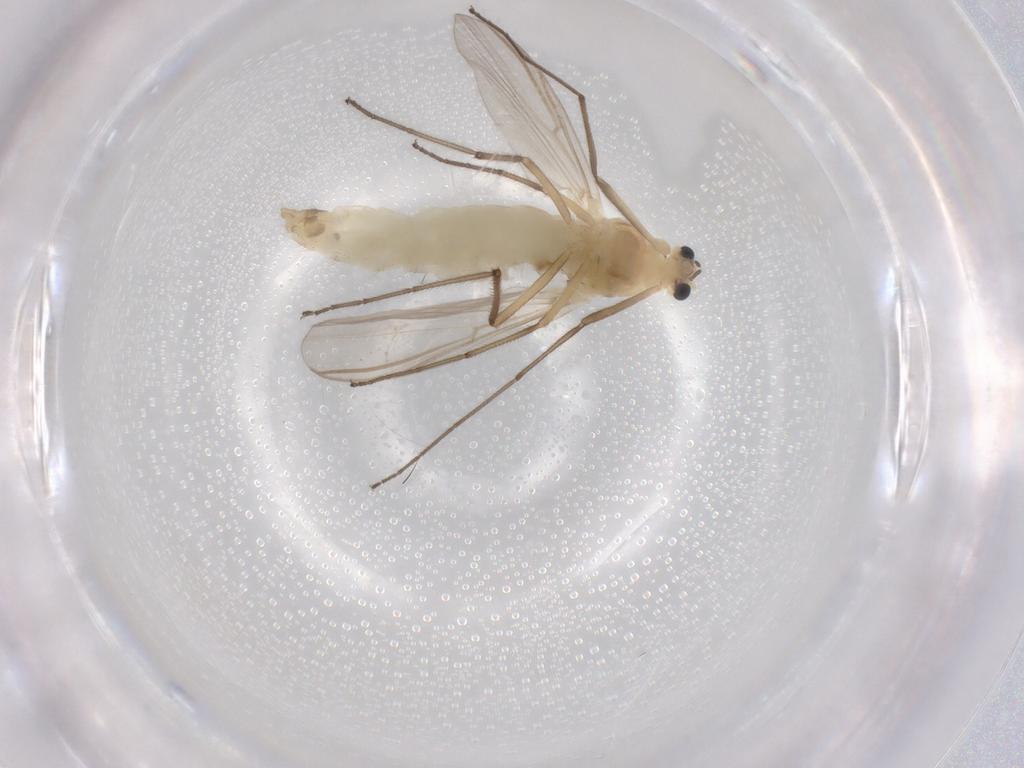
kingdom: Animalia
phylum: Arthropoda
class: Insecta
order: Diptera
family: Chironomidae
